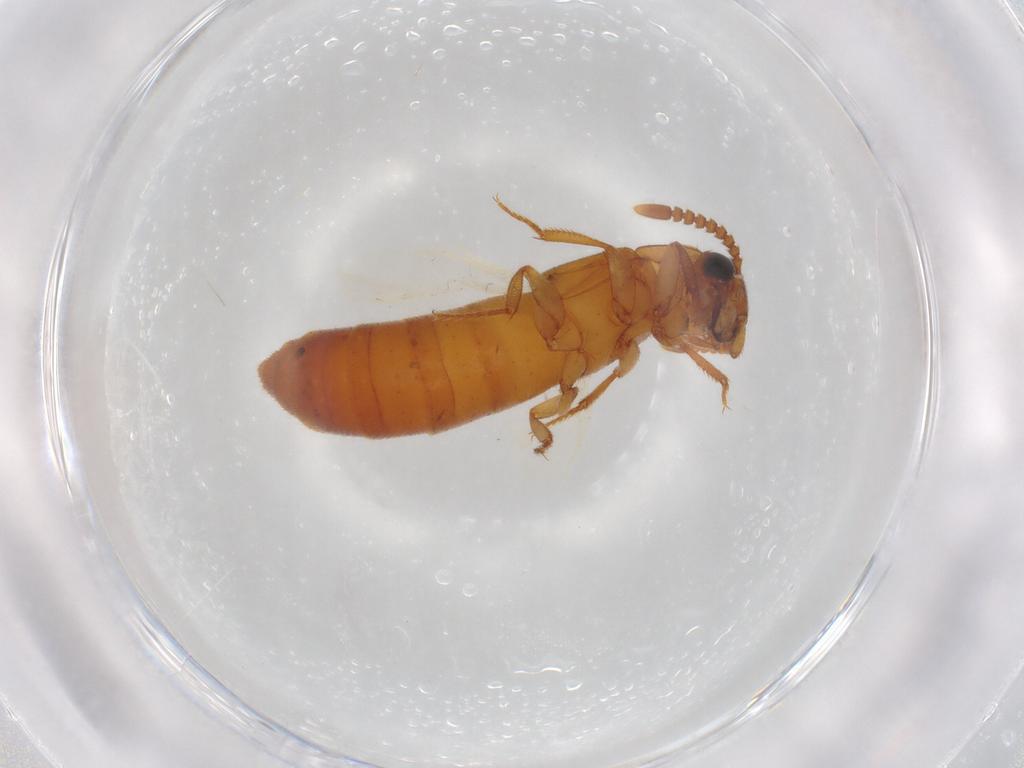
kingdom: Animalia
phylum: Arthropoda
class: Insecta
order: Coleoptera
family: Staphylinidae
